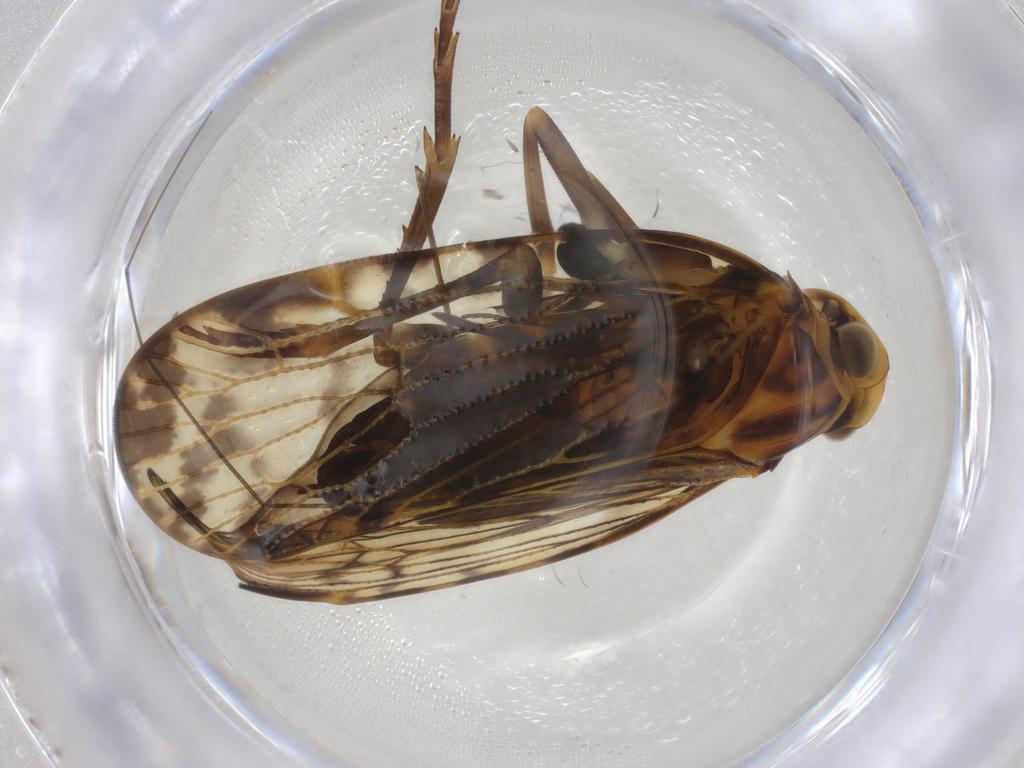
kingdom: Animalia
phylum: Arthropoda
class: Insecta
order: Hemiptera
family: Cixiidae
